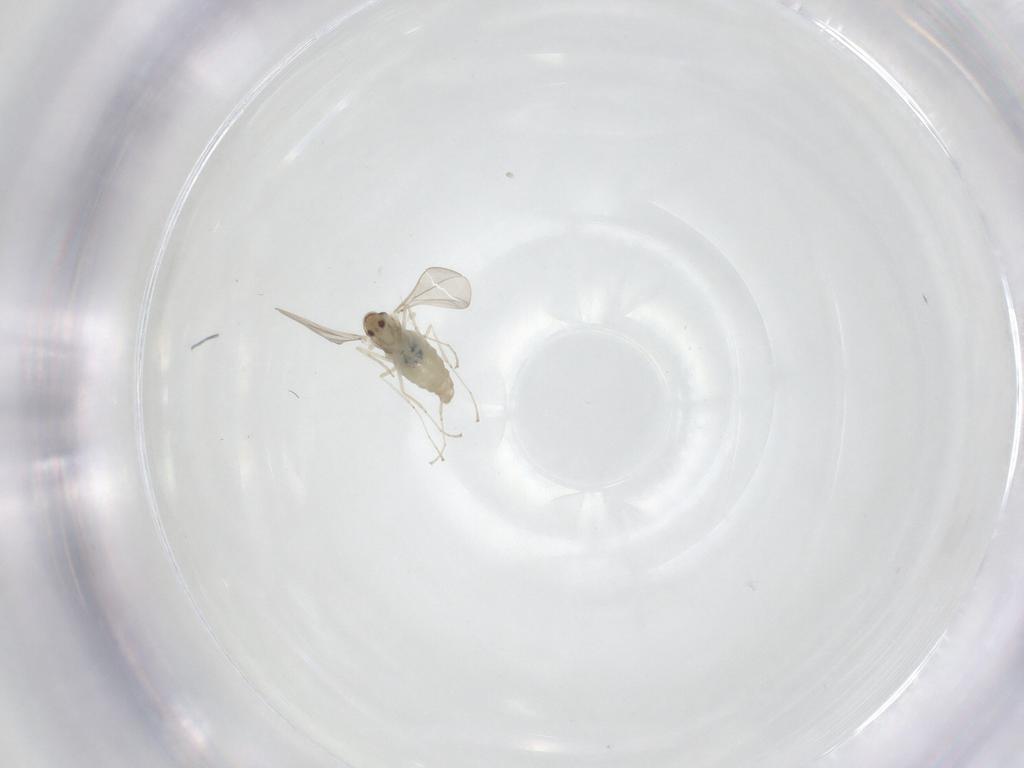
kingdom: Animalia
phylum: Arthropoda
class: Insecta
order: Diptera
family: Cecidomyiidae
